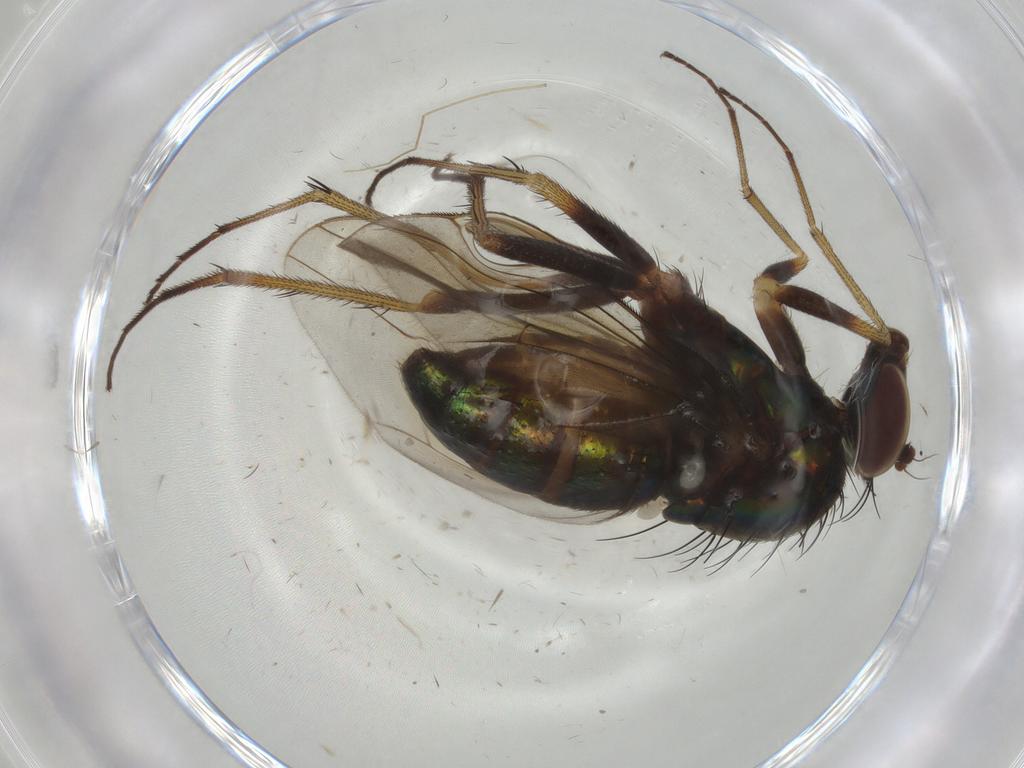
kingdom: Animalia
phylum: Arthropoda
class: Insecta
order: Diptera
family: Dolichopodidae
